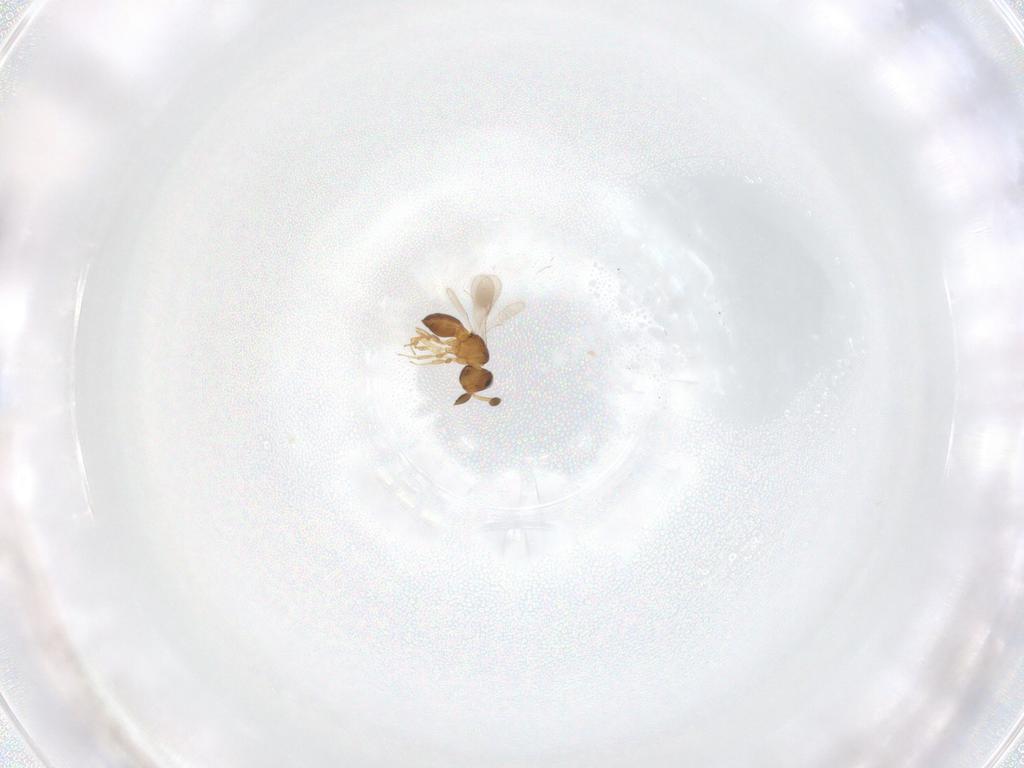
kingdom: Animalia
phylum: Arthropoda
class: Insecta
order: Hymenoptera
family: Scelionidae
